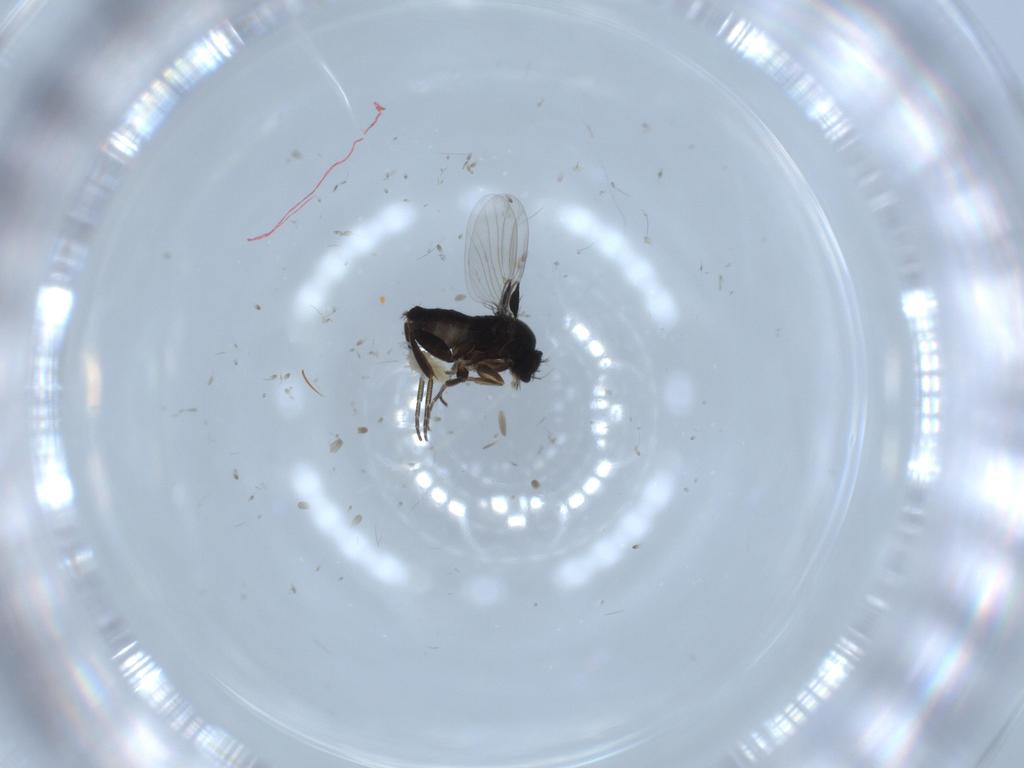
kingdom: Animalia
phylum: Arthropoda
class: Insecta
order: Diptera
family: Phoridae
